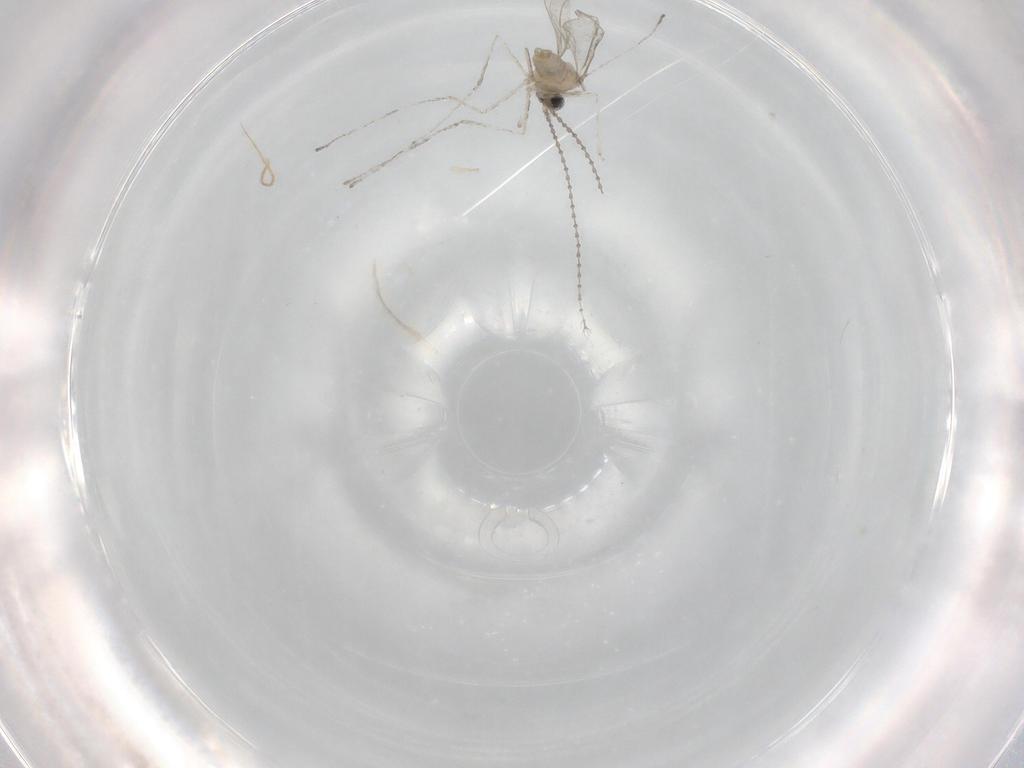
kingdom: Animalia
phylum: Arthropoda
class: Insecta
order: Diptera
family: Cecidomyiidae
